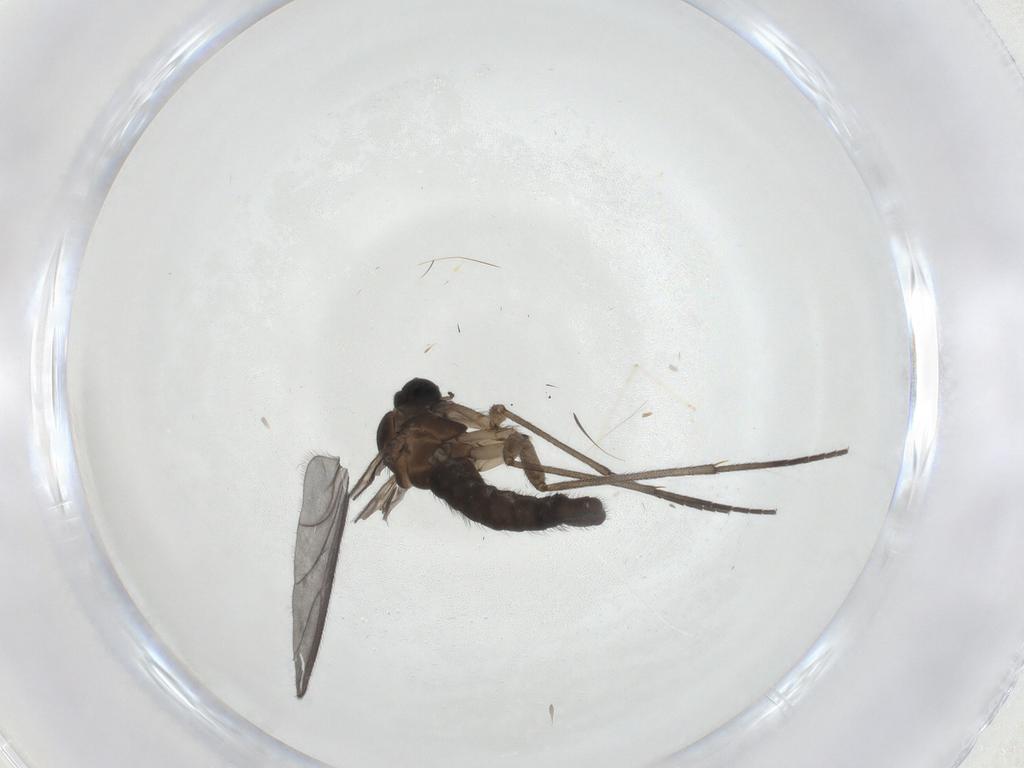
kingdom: Animalia
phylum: Arthropoda
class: Insecta
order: Diptera
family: Sciaridae
